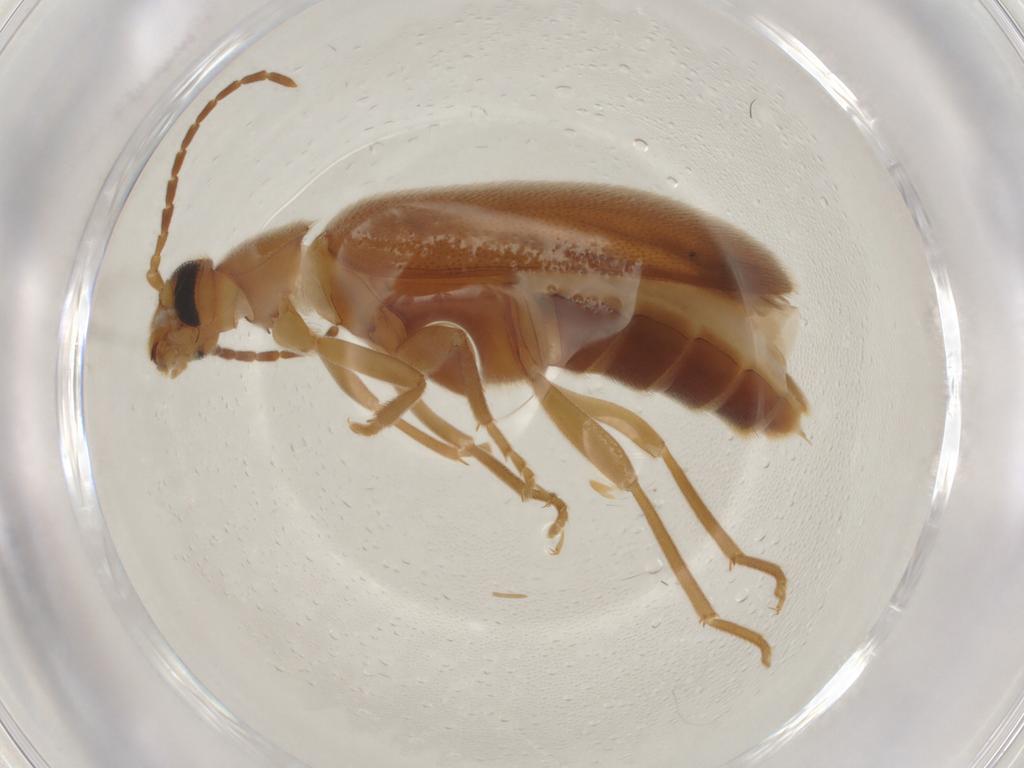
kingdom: Animalia
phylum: Arthropoda
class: Insecta
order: Coleoptera
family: Scraptiidae
